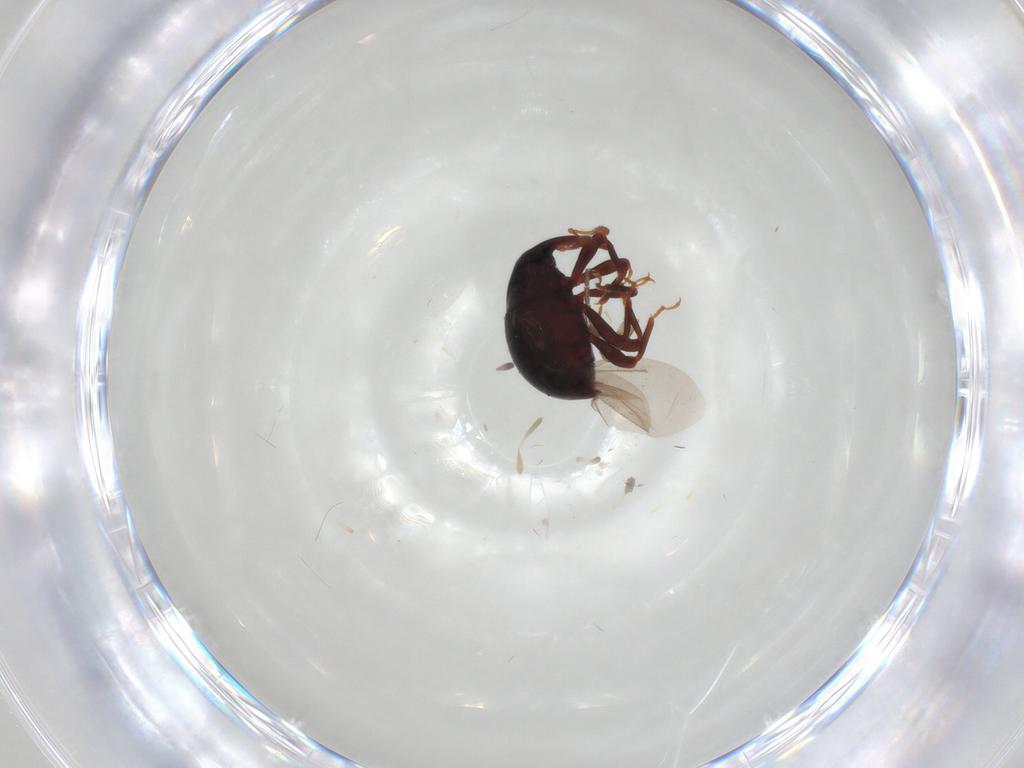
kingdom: Animalia
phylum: Arthropoda
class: Insecta
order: Coleoptera
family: Curculionidae
